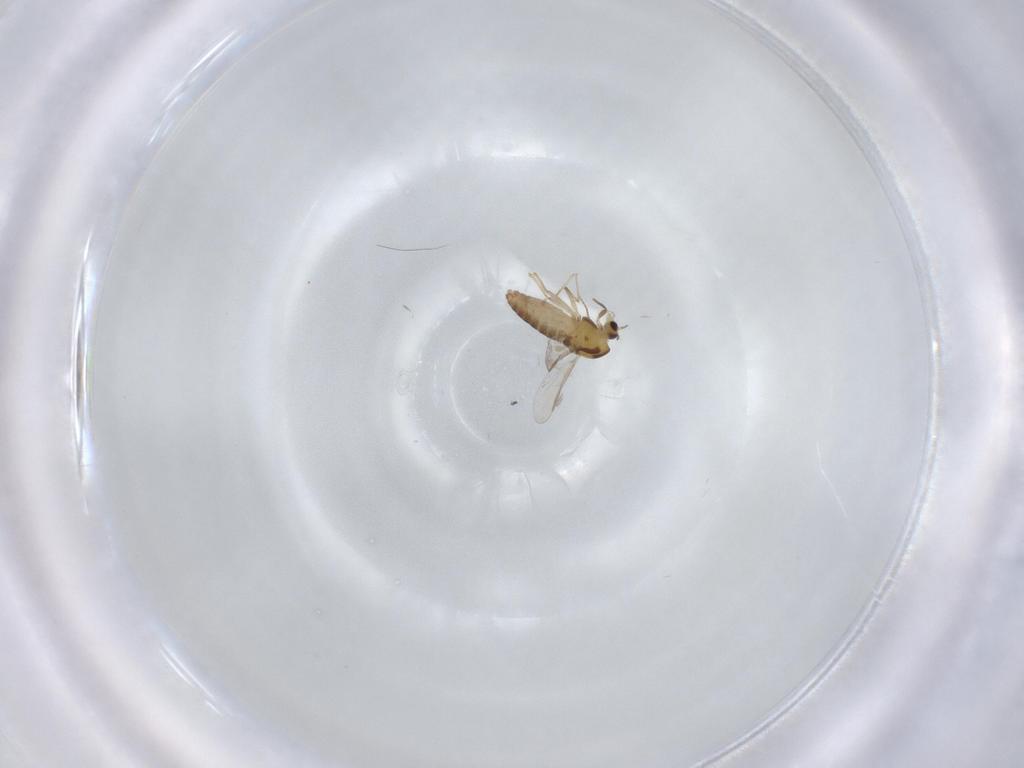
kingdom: Animalia
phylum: Arthropoda
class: Insecta
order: Diptera
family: Chironomidae
